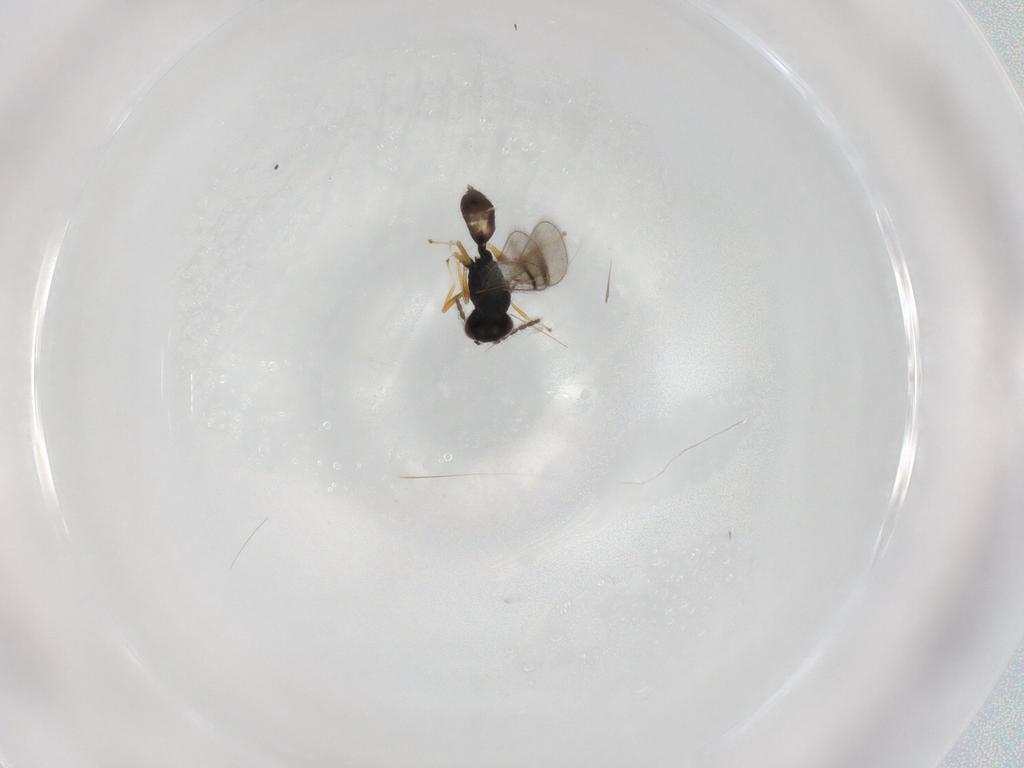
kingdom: Animalia
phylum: Arthropoda
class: Insecta
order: Hymenoptera
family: Eulophidae
